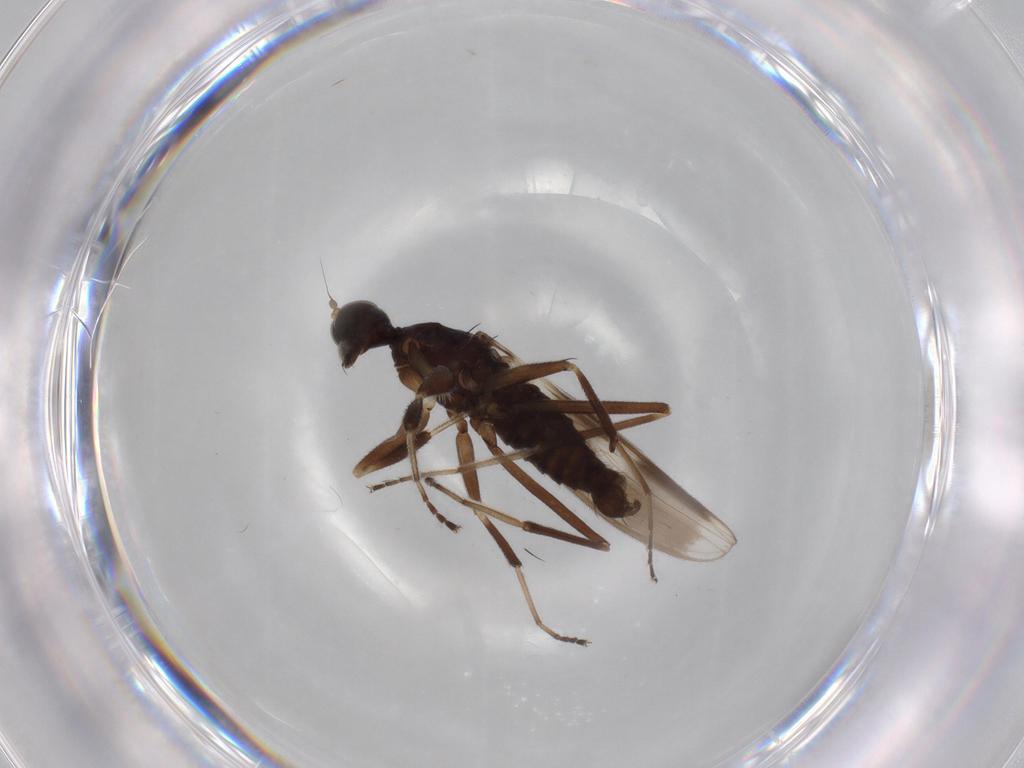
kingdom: Animalia
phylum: Arthropoda
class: Insecta
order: Diptera
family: Hybotidae
